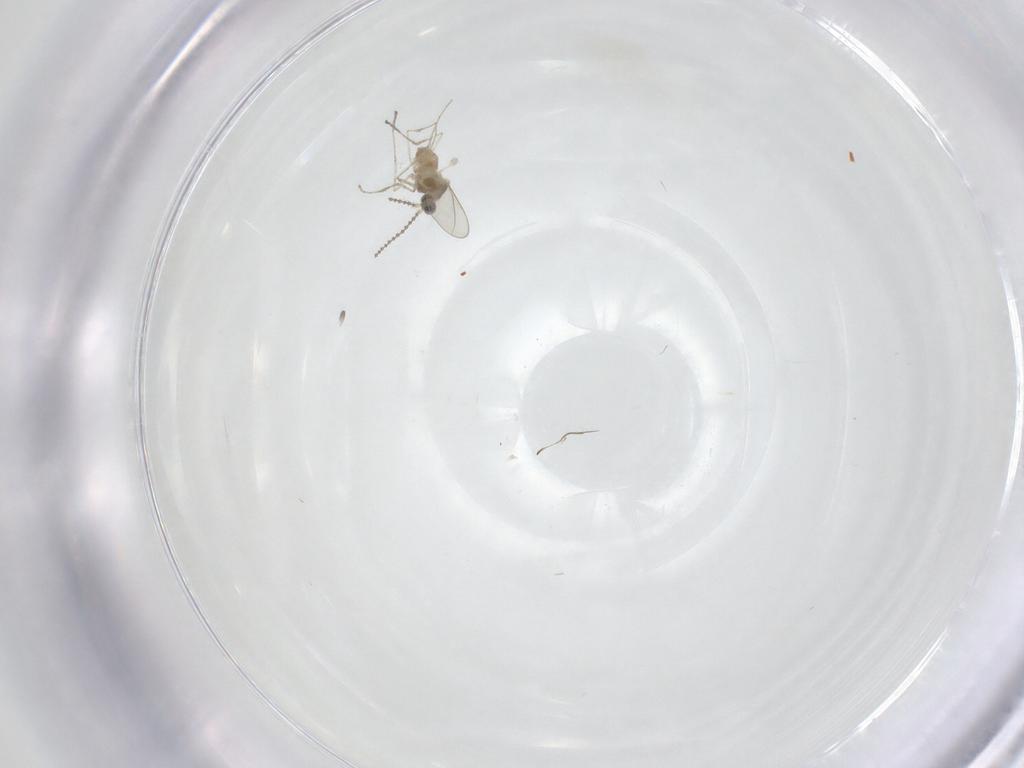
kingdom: Animalia
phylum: Arthropoda
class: Insecta
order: Diptera
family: Cecidomyiidae
